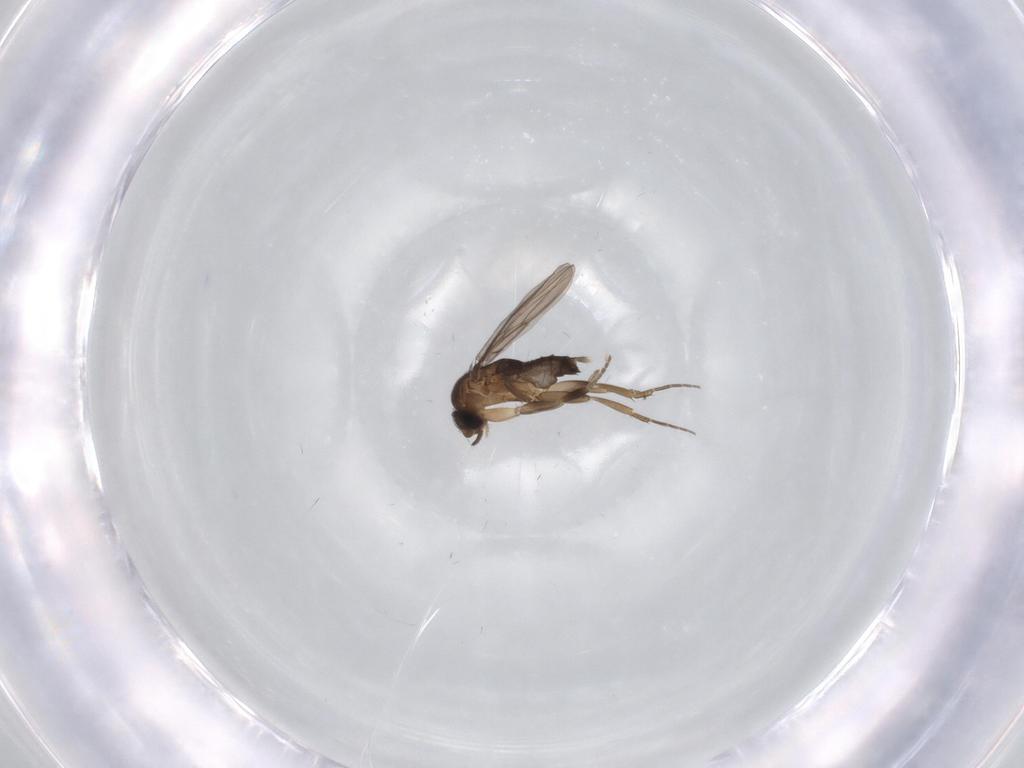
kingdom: Animalia
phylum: Arthropoda
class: Insecta
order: Diptera
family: Phoridae
